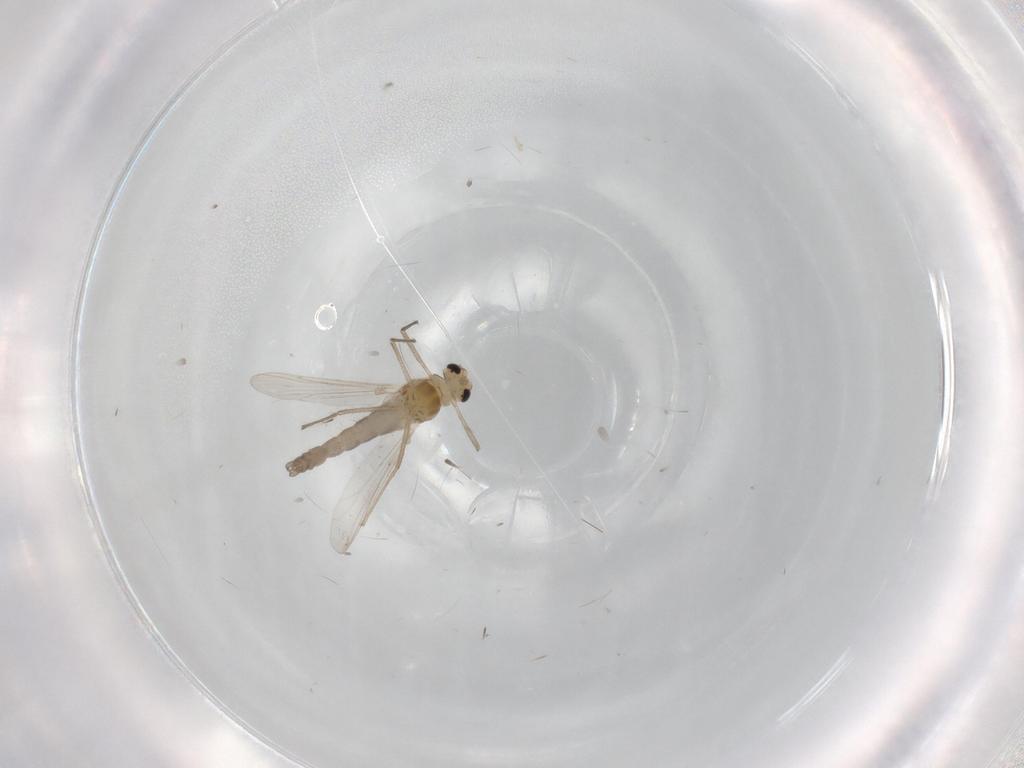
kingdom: Animalia
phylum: Arthropoda
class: Insecta
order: Diptera
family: Chironomidae
